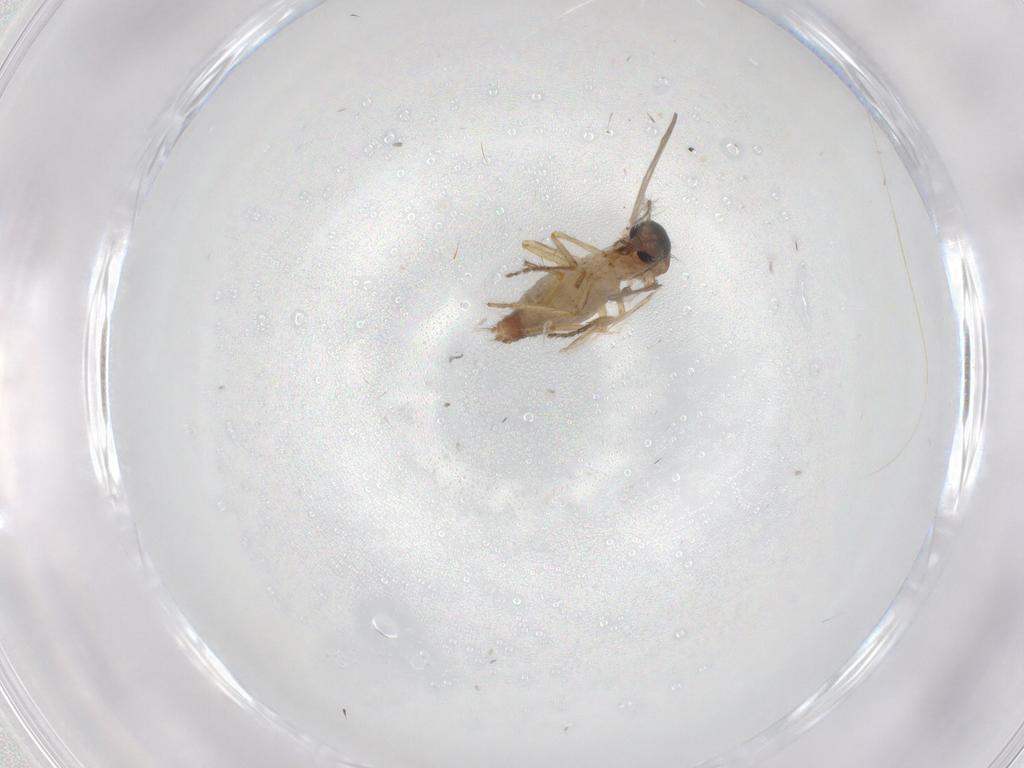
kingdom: Animalia
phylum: Arthropoda
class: Insecta
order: Diptera
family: Ceratopogonidae
